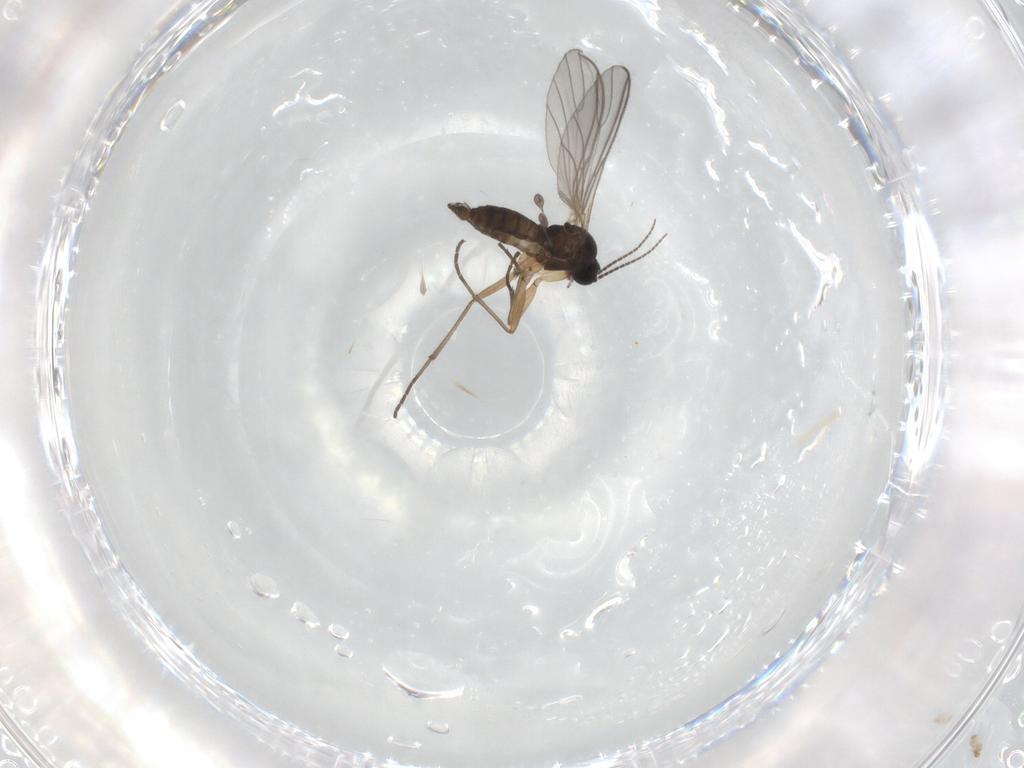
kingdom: Animalia
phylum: Arthropoda
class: Insecta
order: Diptera
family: Sciaridae
